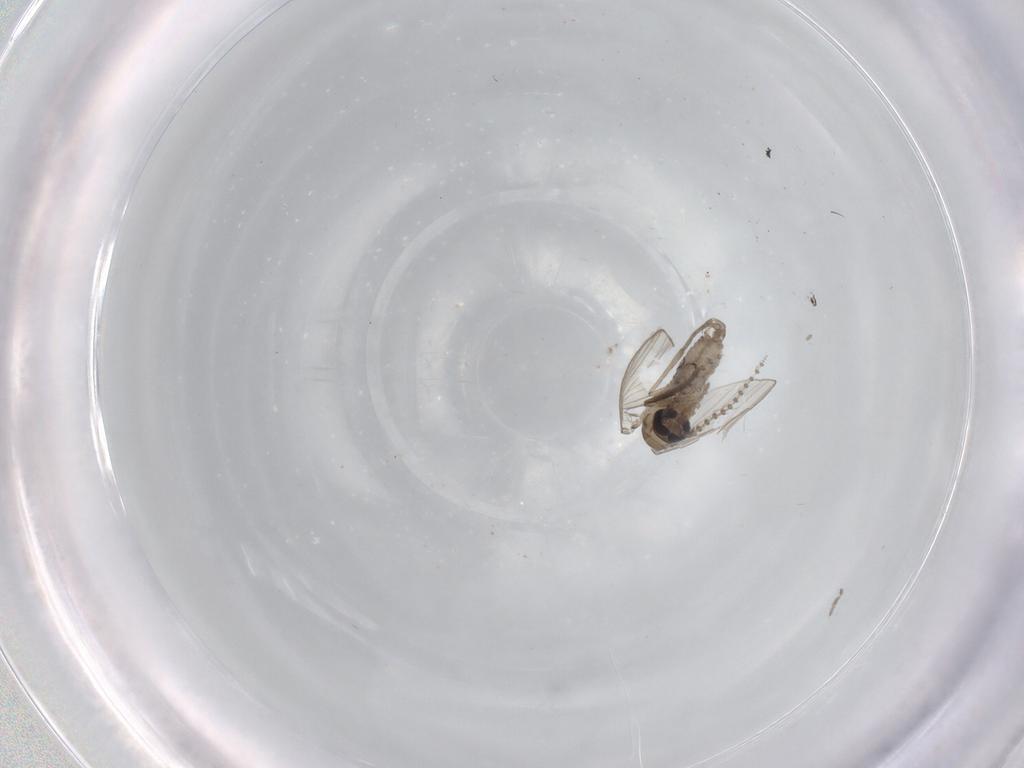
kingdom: Animalia
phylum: Arthropoda
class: Insecta
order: Diptera
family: Psychodidae
